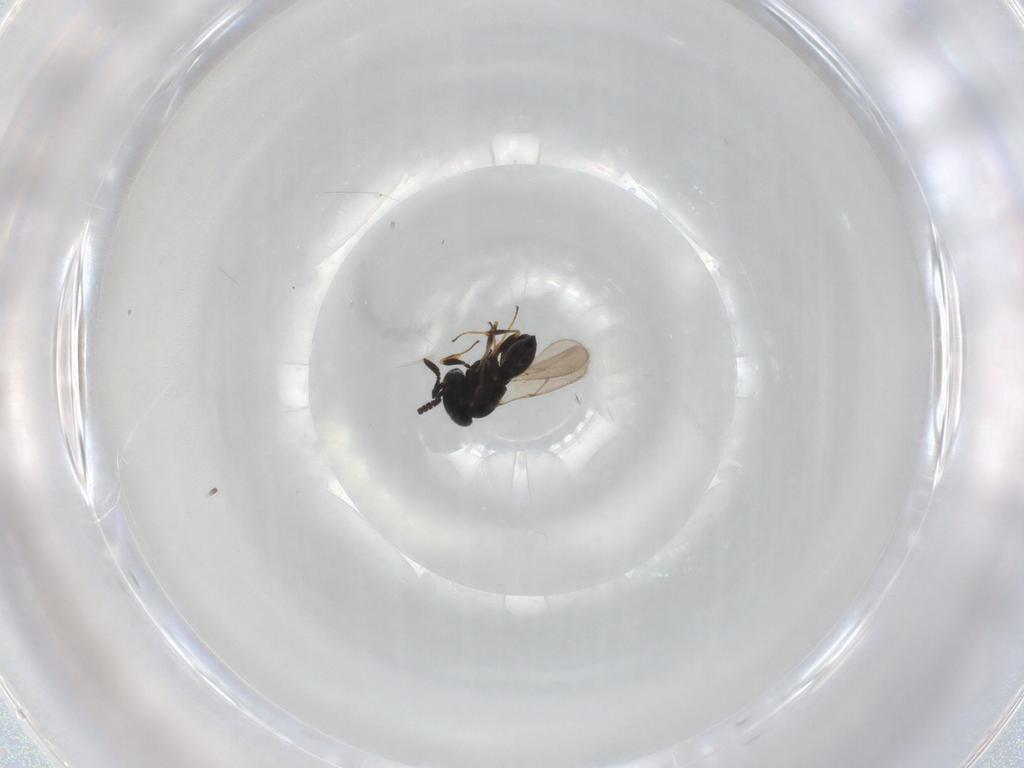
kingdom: Animalia
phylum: Arthropoda
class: Insecta
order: Hymenoptera
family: Scelionidae
